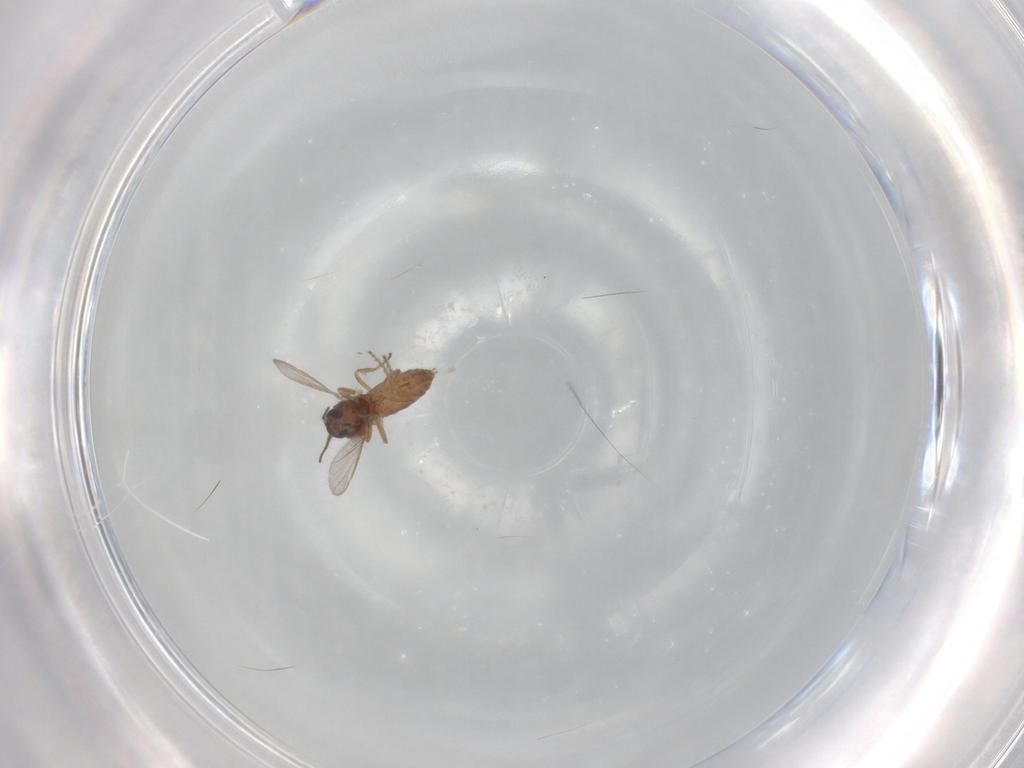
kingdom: Animalia
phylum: Arthropoda
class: Insecta
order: Diptera
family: Ceratopogonidae
